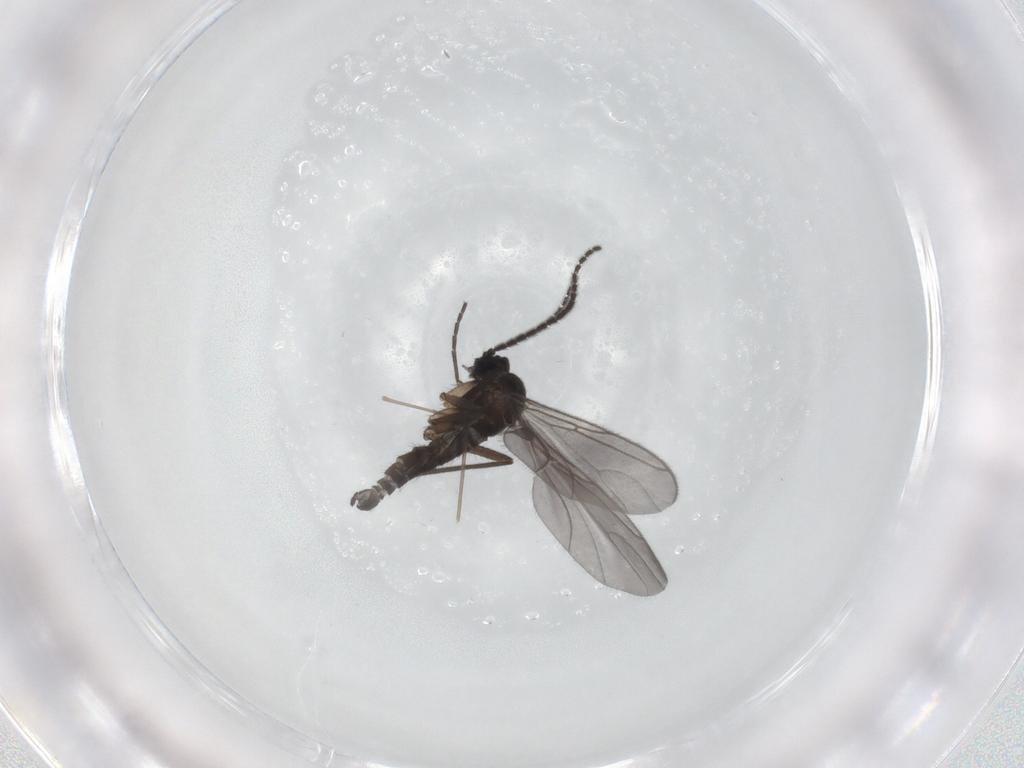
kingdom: Animalia
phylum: Arthropoda
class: Insecta
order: Diptera
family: Sciaridae
